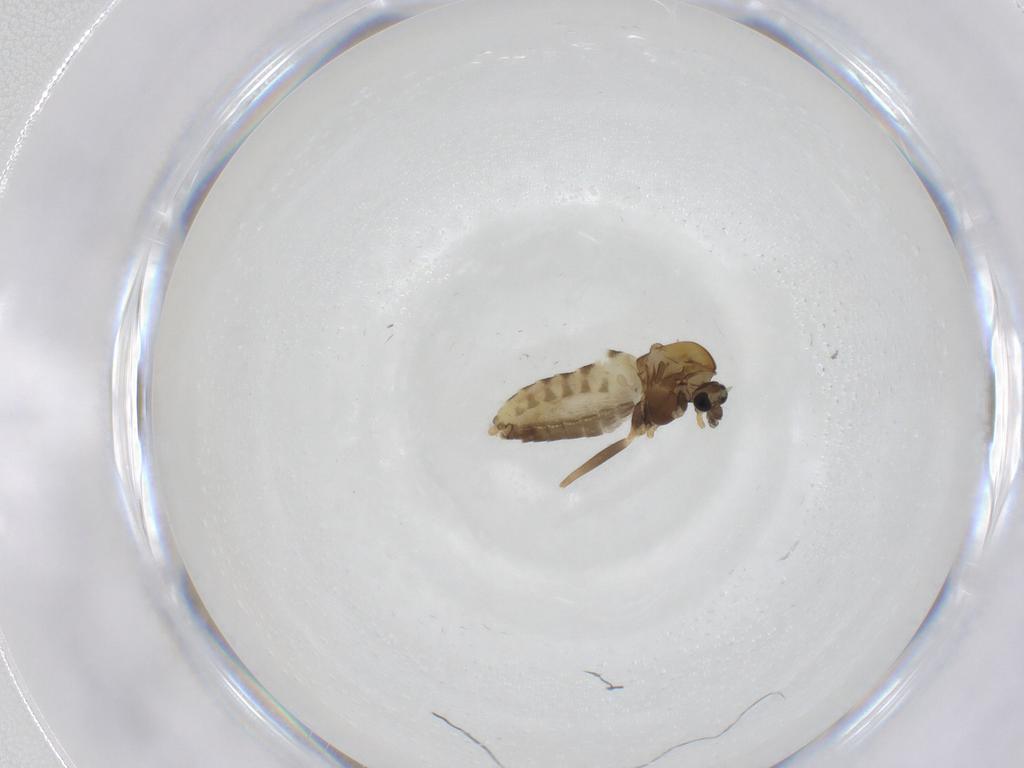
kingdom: Animalia
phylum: Arthropoda
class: Insecta
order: Diptera
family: Chironomidae
